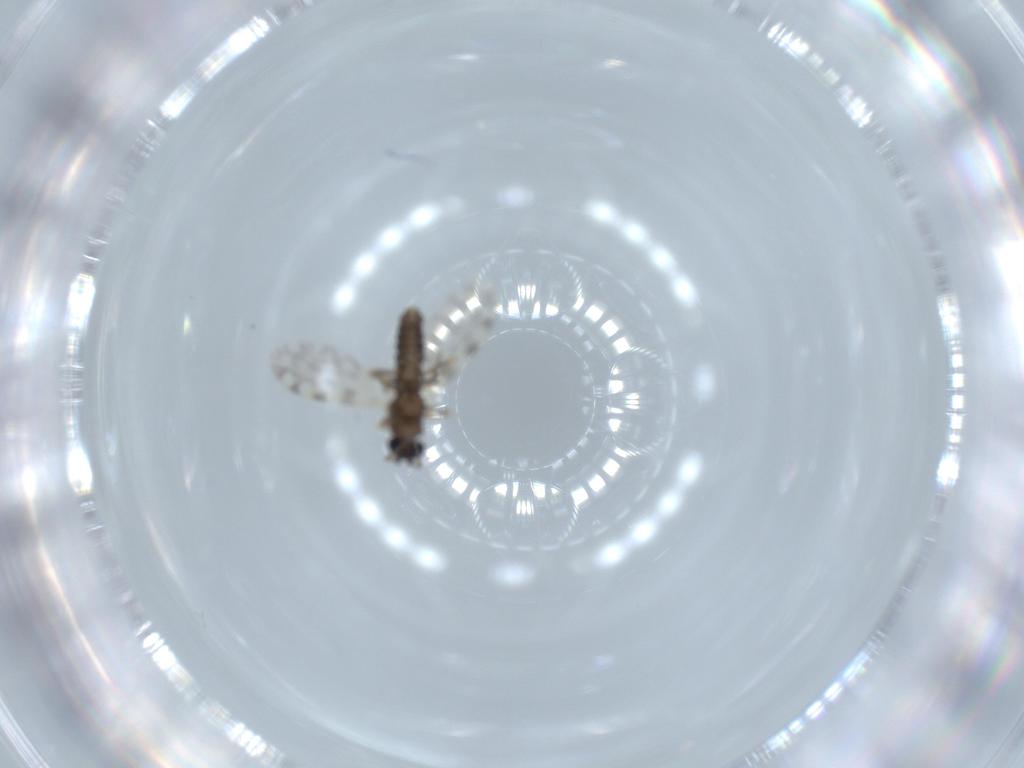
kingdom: Animalia
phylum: Arthropoda
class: Insecta
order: Diptera
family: Ceratopogonidae
